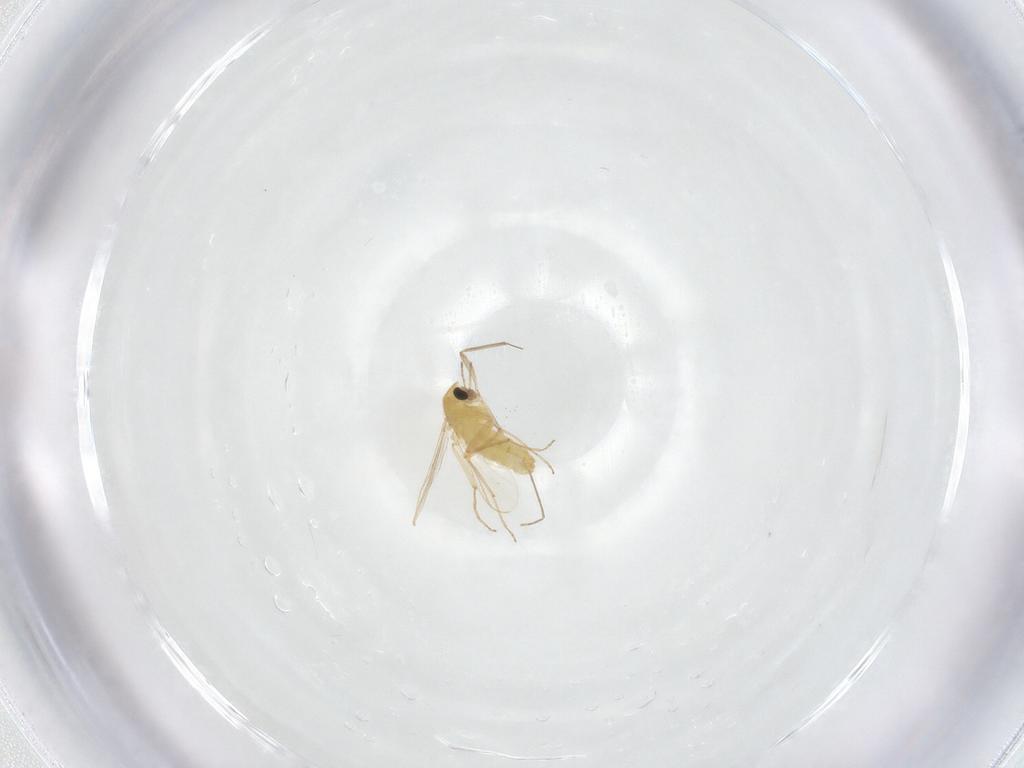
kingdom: Animalia
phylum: Arthropoda
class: Insecta
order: Diptera
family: Chironomidae
